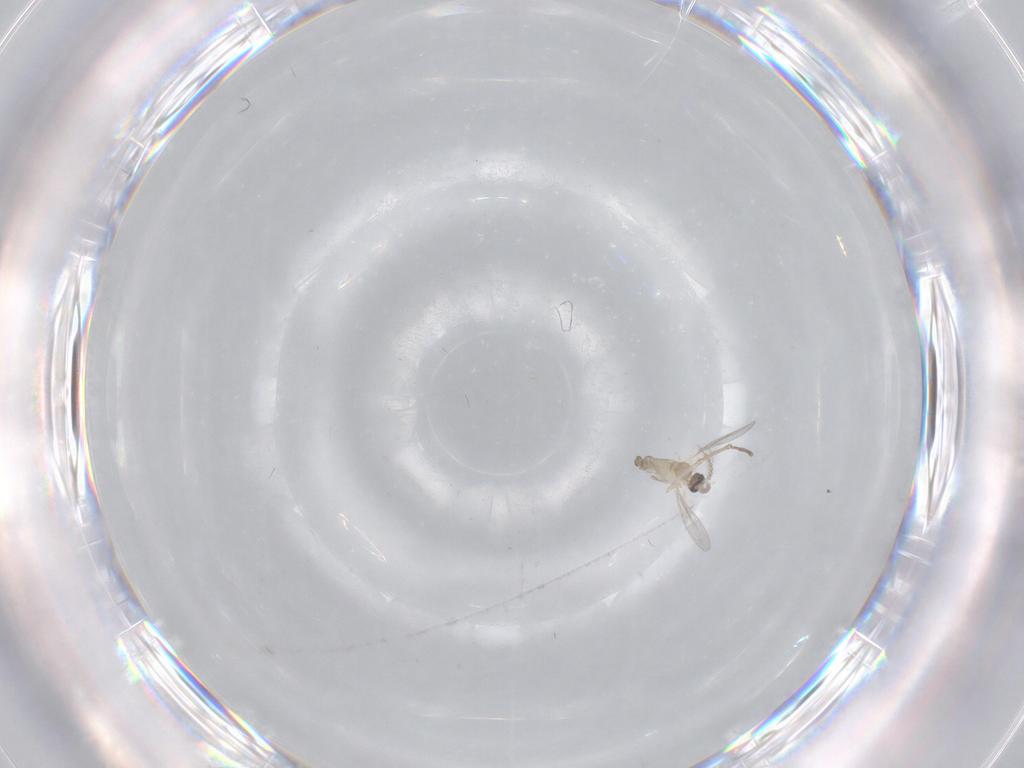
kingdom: Animalia
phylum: Arthropoda
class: Insecta
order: Diptera
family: Cecidomyiidae
